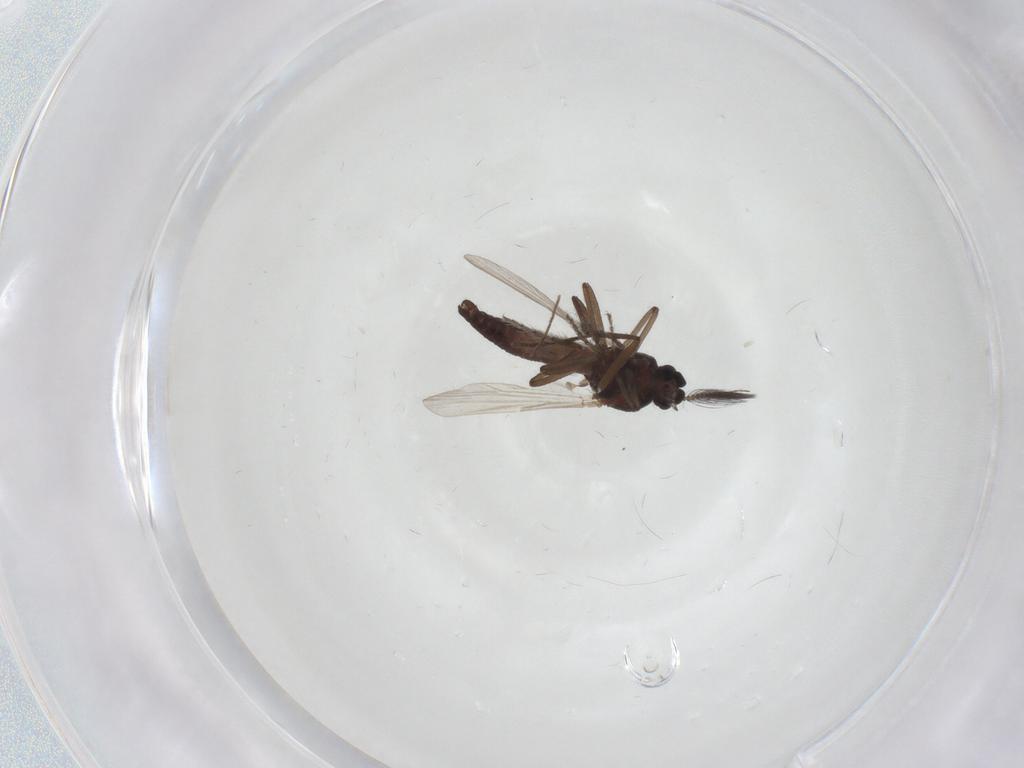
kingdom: Animalia
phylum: Arthropoda
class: Insecta
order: Diptera
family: Ceratopogonidae
